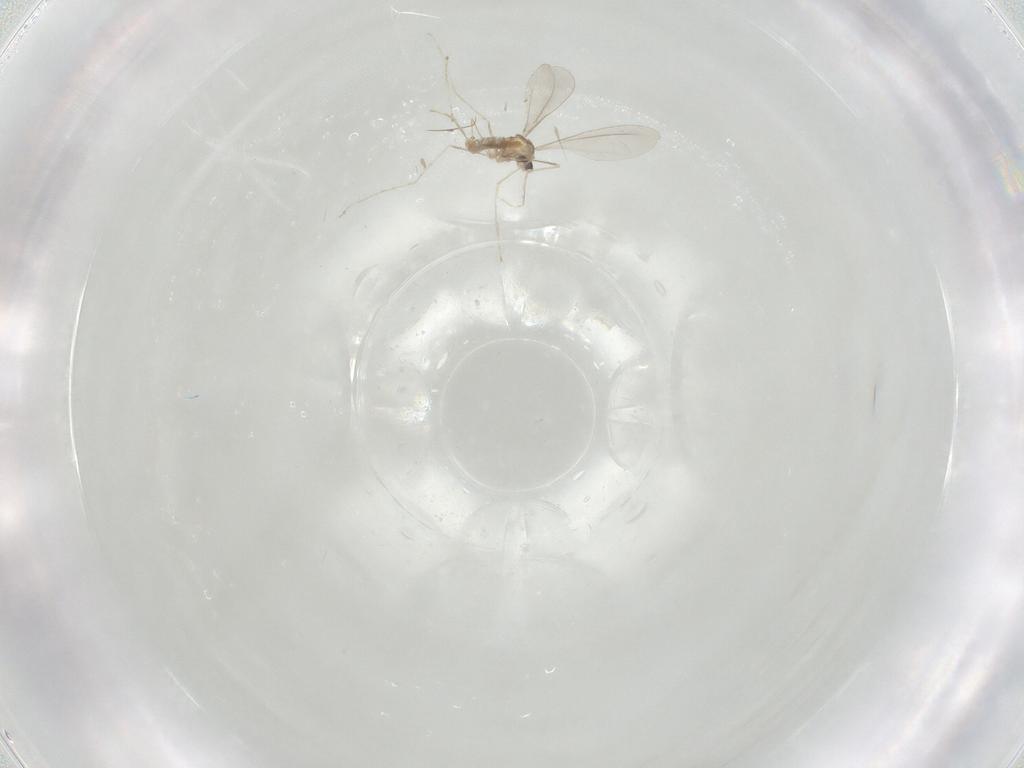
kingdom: Animalia
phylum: Arthropoda
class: Insecta
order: Diptera
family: Cecidomyiidae
